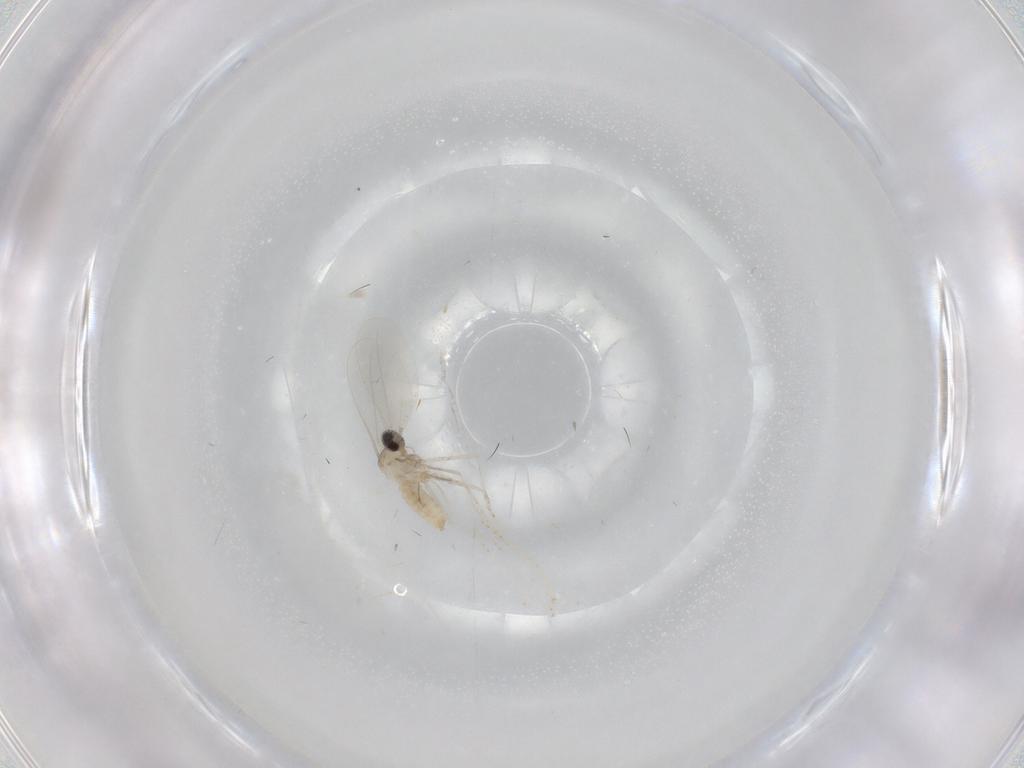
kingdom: Animalia
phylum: Arthropoda
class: Insecta
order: Diptera
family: Cecidomyiidae
